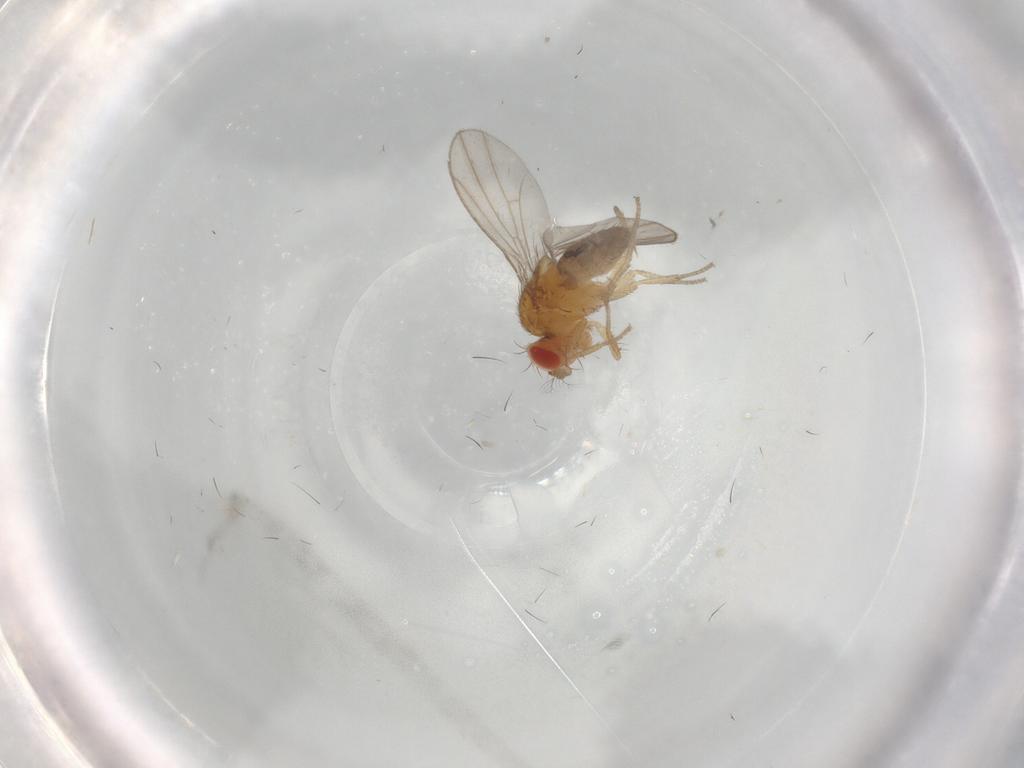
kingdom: Animalia
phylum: Arthropoda
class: Insecta
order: Diptera
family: Drosophilidae
